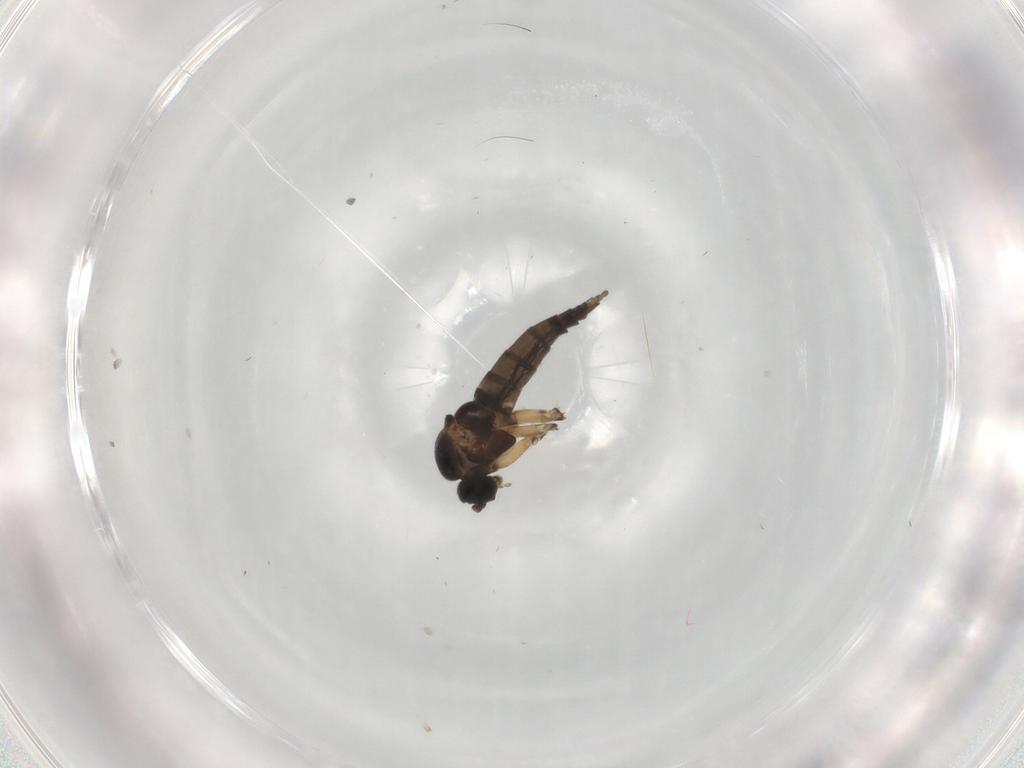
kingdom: Animalia
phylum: Arthropoda
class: Insecta
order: Diptera
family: Sciaridae
